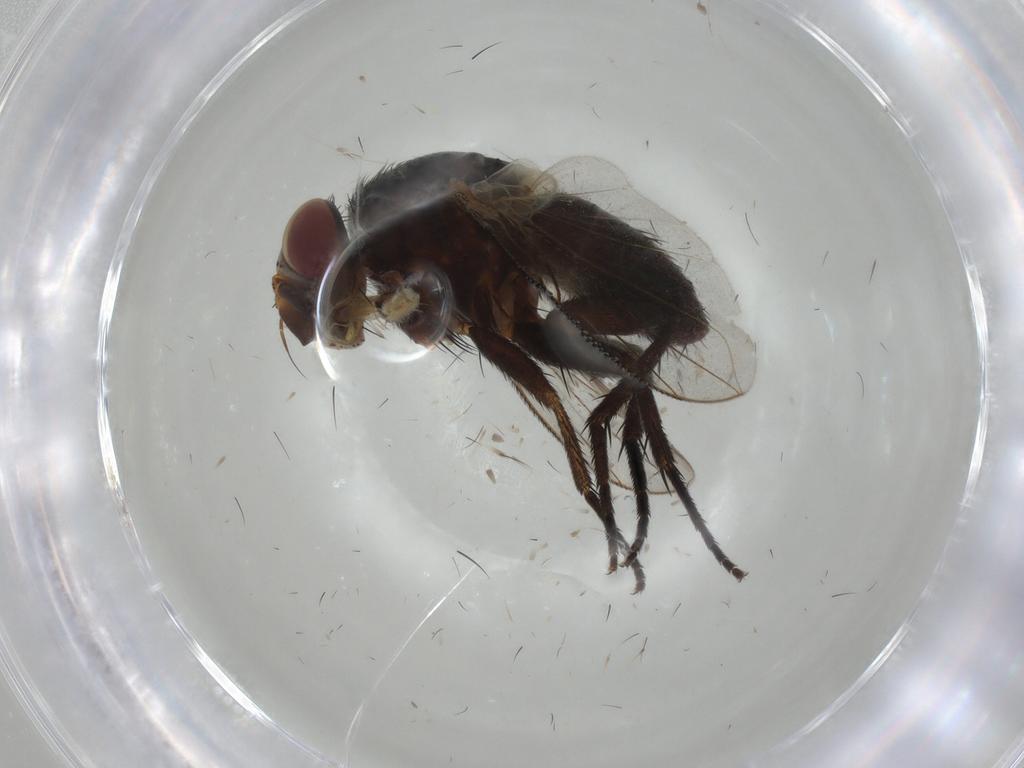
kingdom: Animalia
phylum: Arthropoda
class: Insecta
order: Diptera
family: Tachinidae
